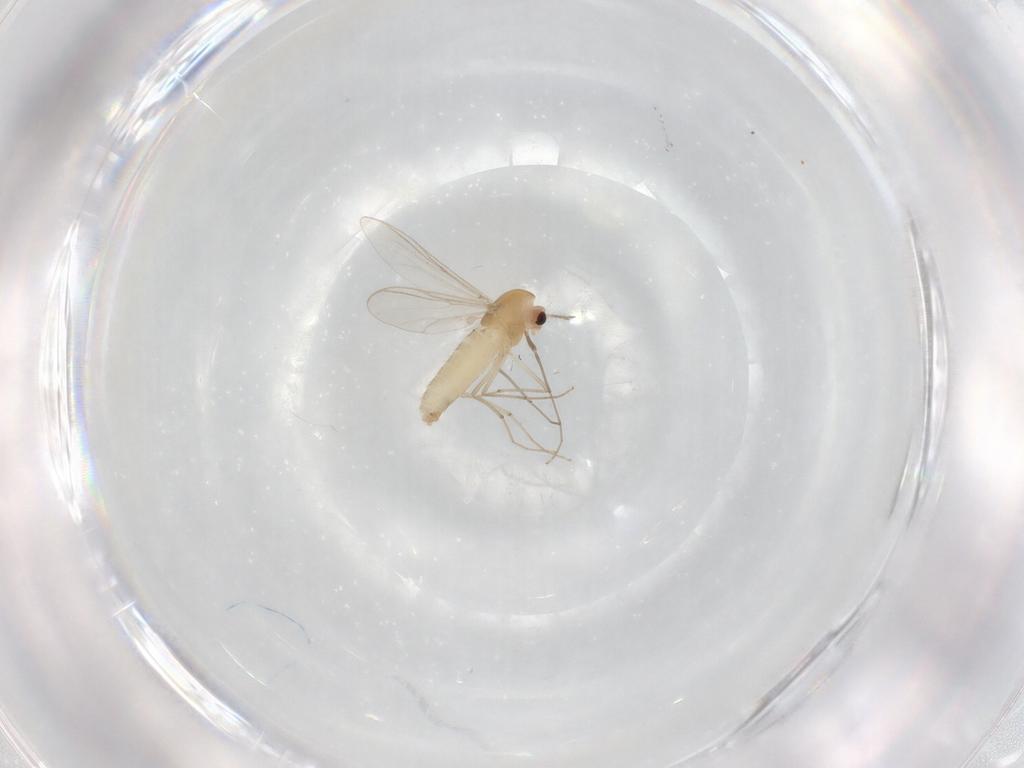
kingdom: Animalia
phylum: Arthropoda
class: Insecta
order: Diptera
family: Chironomidae
